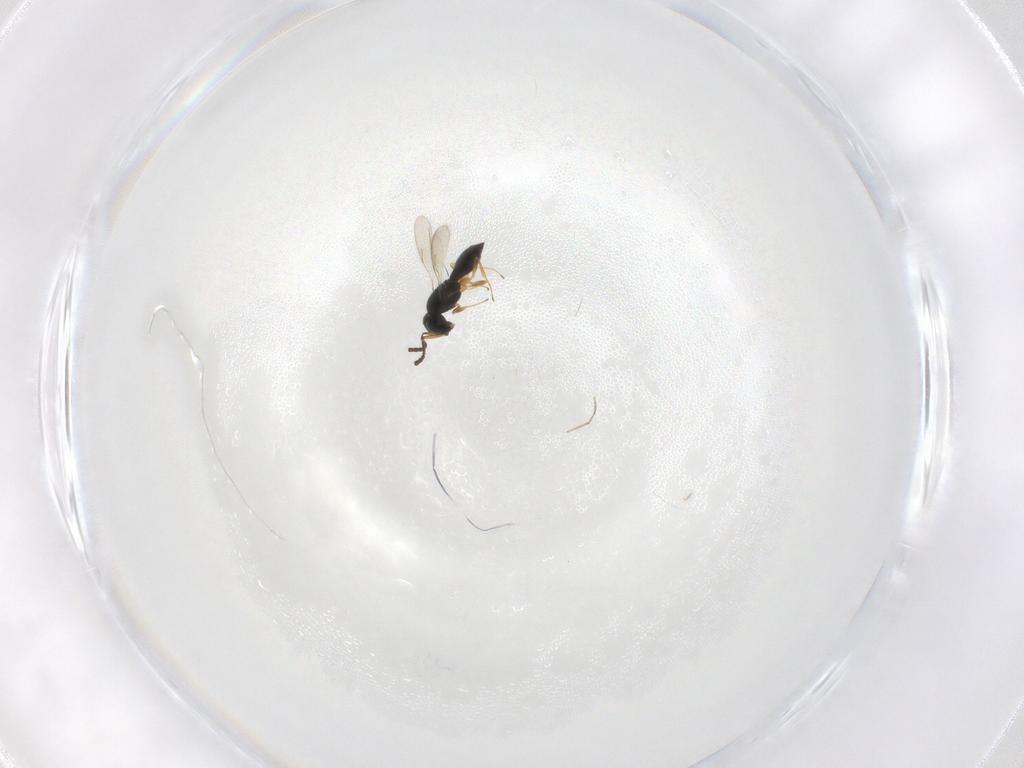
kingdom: Animalia
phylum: Arthropoda
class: Insecta
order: Hymenoptera
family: Scelionidae
